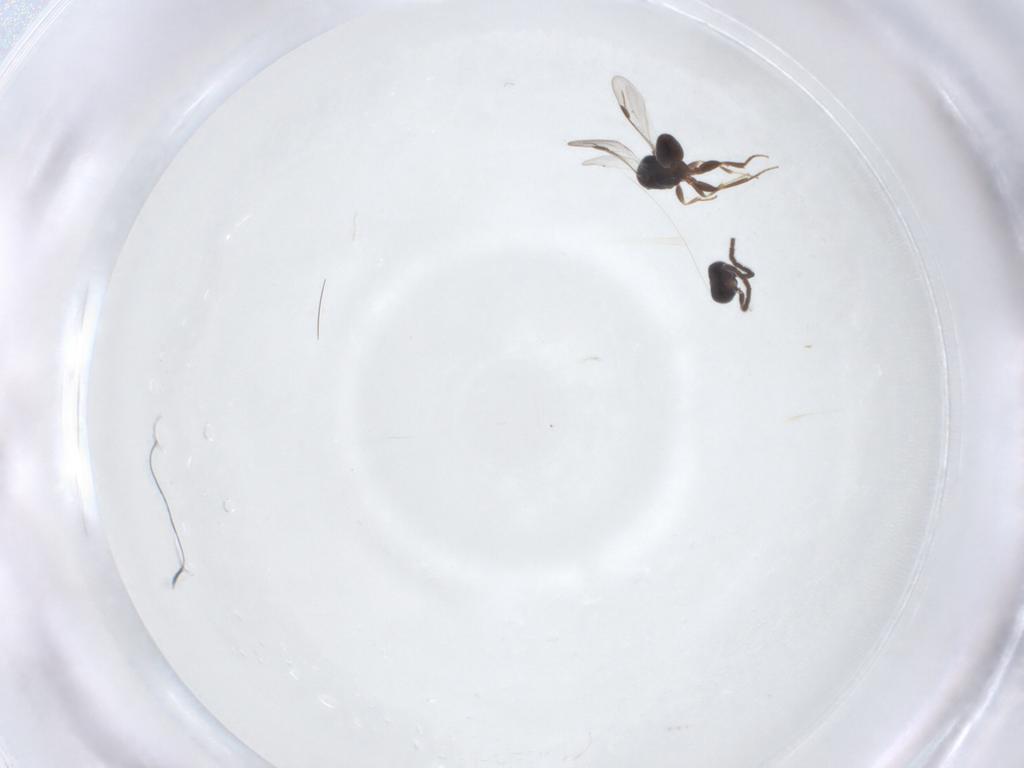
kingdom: Animalia
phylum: Arthropoda
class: Insecta
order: Hymenoptera
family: Megaspilidae
